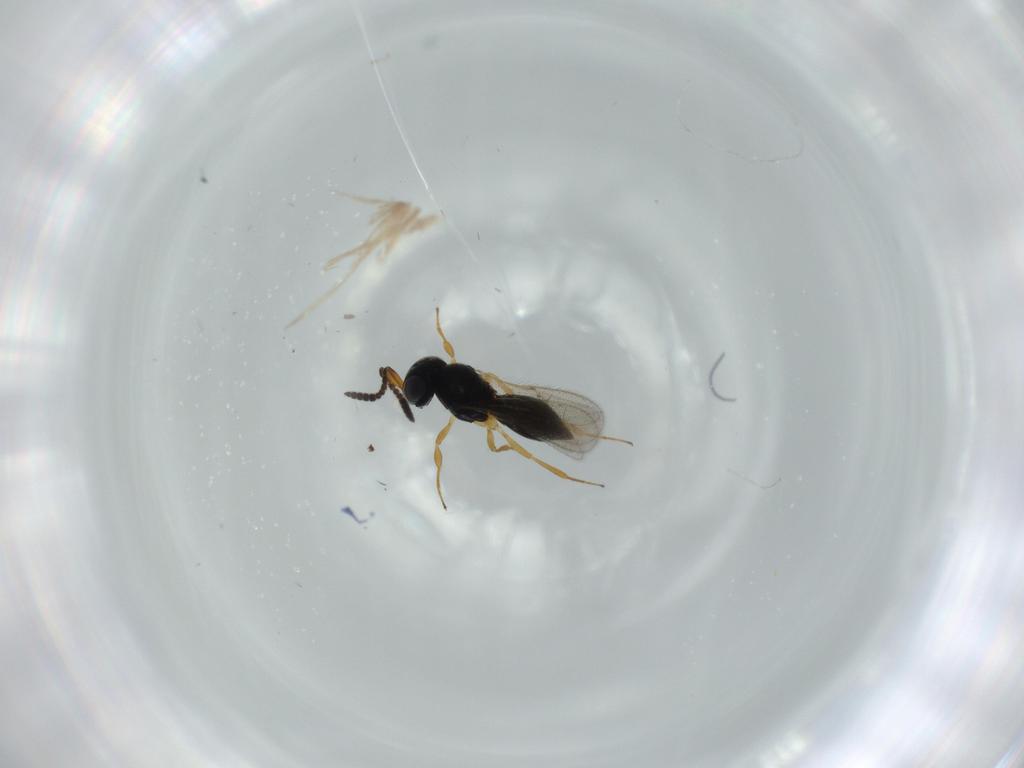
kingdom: Animalia
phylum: Arthropoda
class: Insecta
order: Hymenoptera
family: Scelionidae
